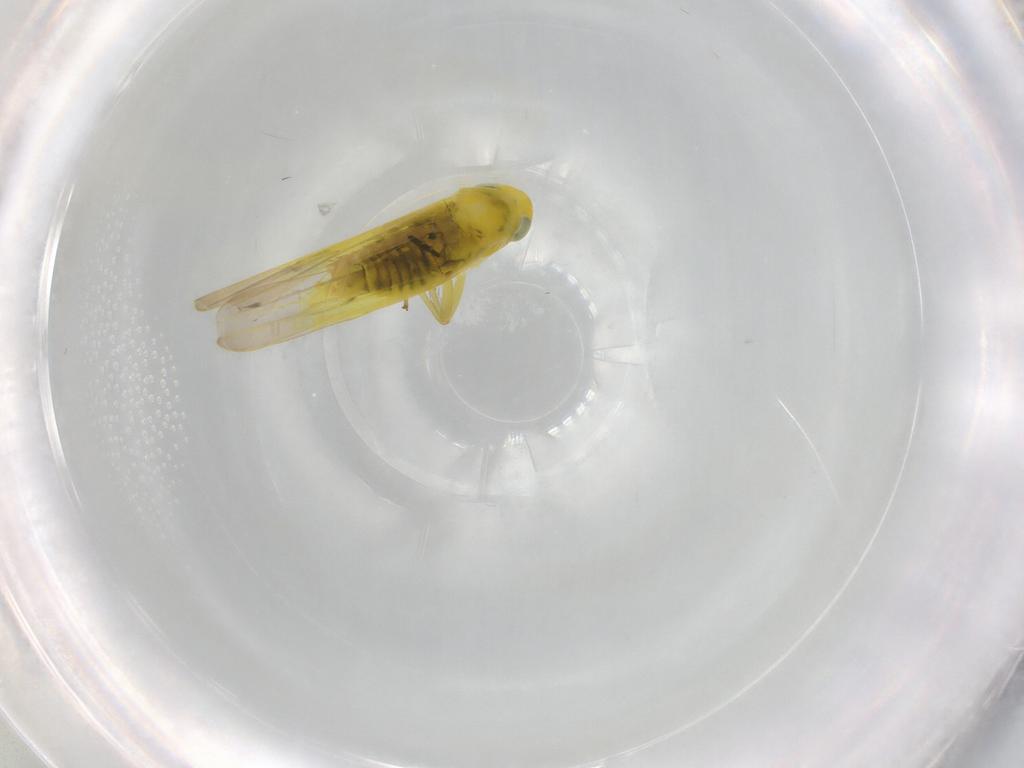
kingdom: Animalia
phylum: Arthropoda
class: Insecta
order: Hemiptera
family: Cicadellidae
